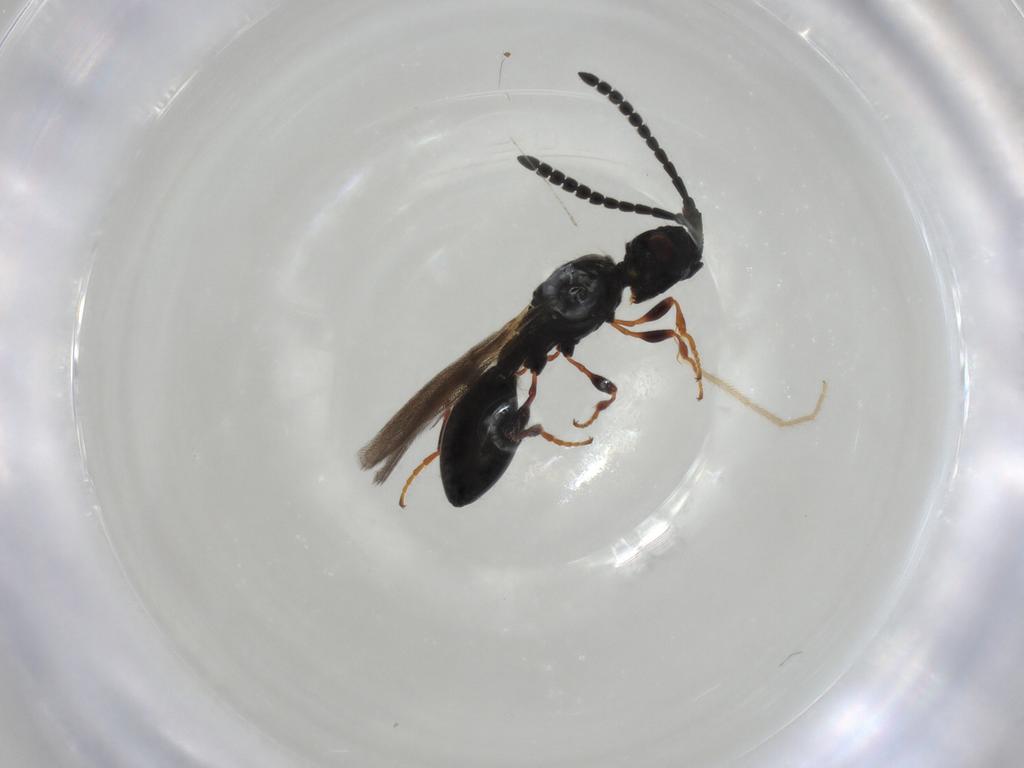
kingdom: Animalia
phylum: Arthropoda
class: Insecta
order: Hymenoptera
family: Diapriidae
